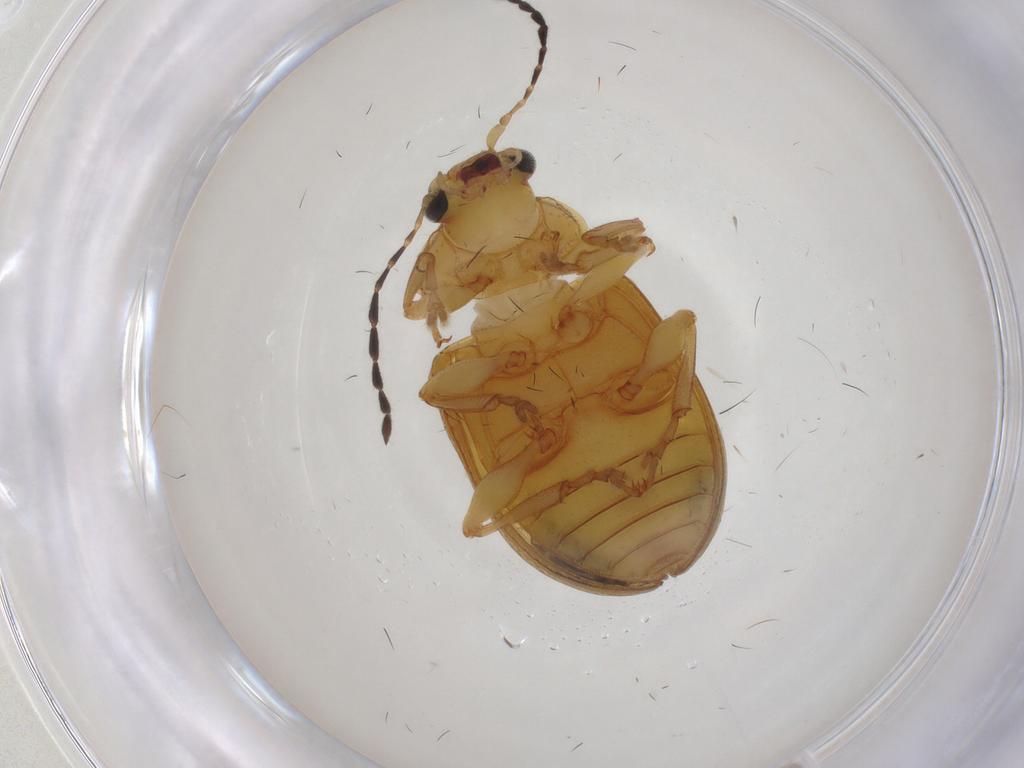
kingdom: Animalia
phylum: Arthropoda
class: Insecta
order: Coleoptera
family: Chrysomelidae
